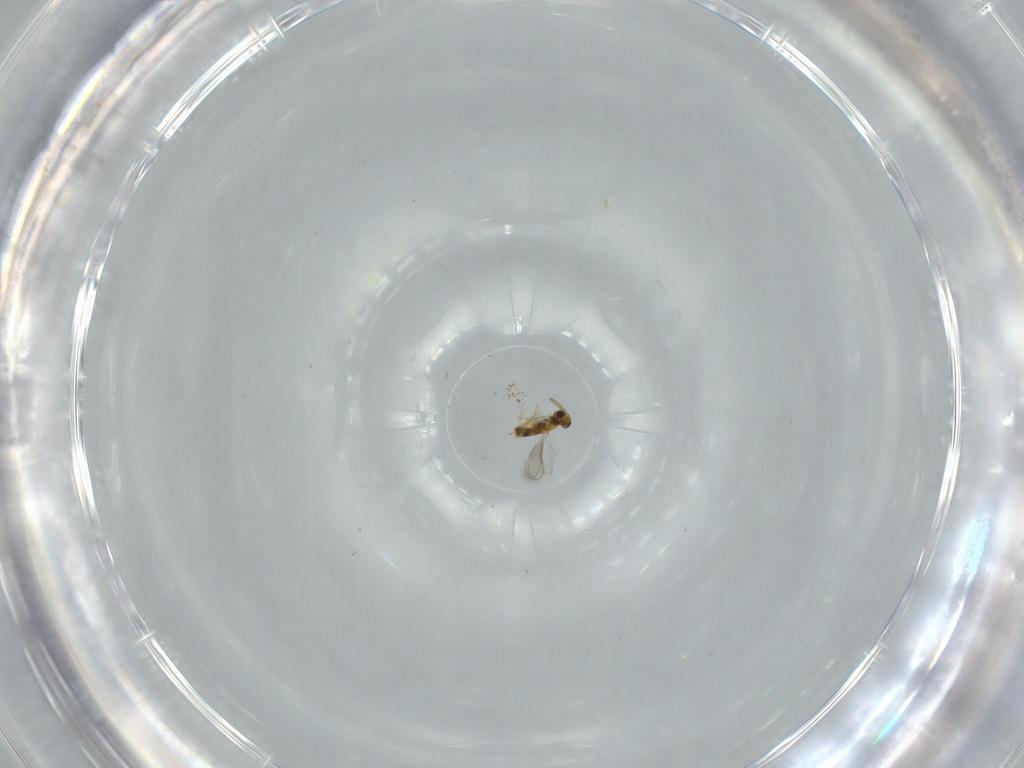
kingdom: Animalia
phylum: Arthropoda
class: Insecta
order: Hymenoptera
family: Aphelinidae
